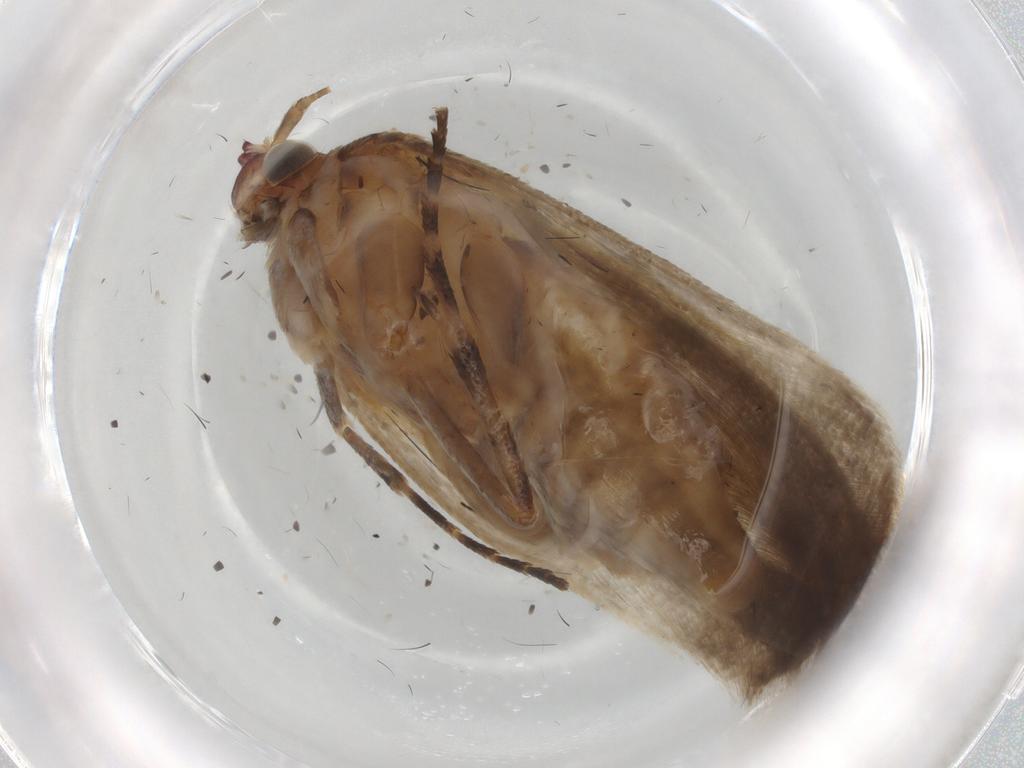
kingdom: Animalia
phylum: Arthropoda
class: Insecta
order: Lepidoptera
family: Gelechiidae
